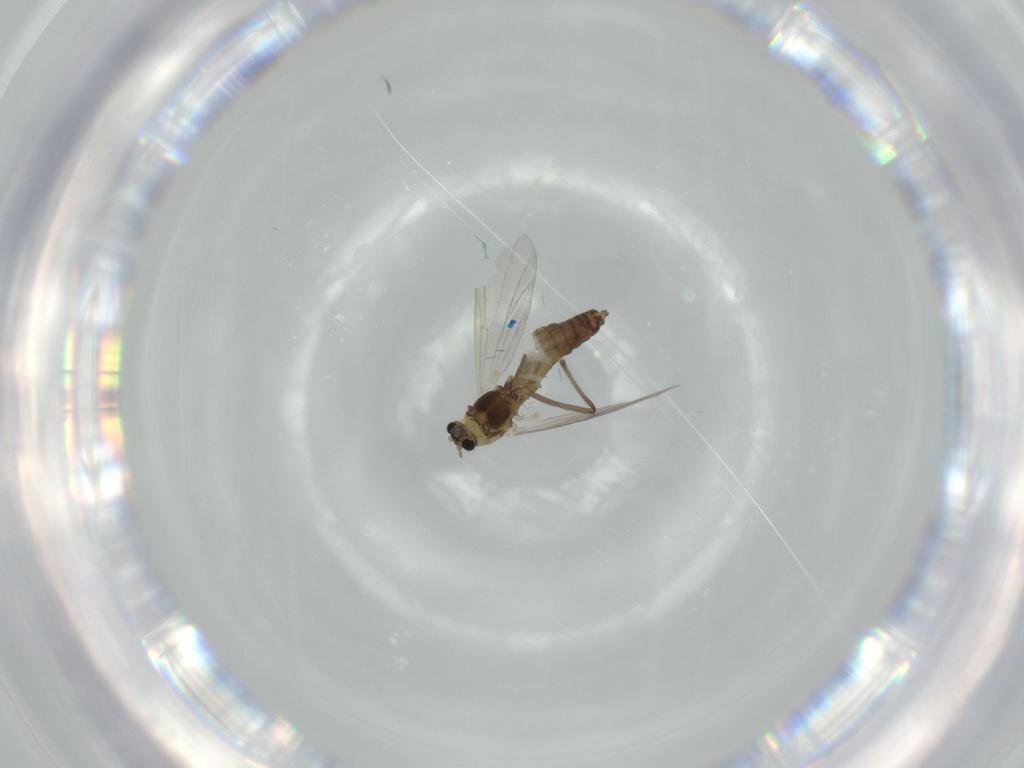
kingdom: Animalia
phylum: Arthropoda
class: Insecta
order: Diptera
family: Chironomidae
